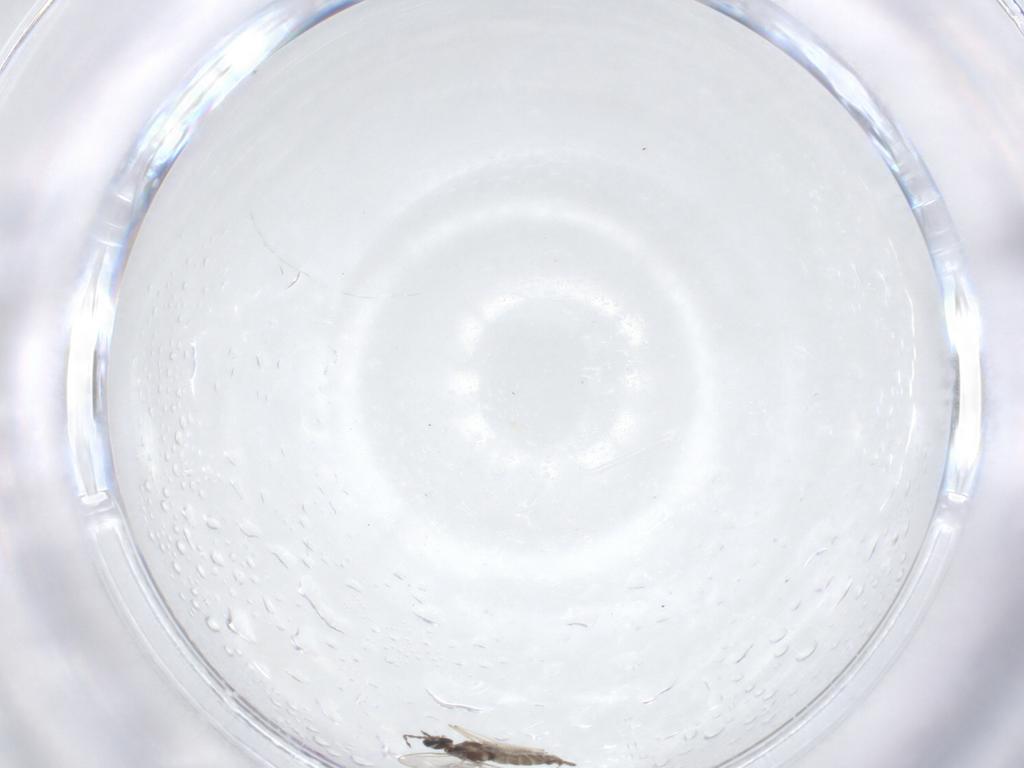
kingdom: Animalia
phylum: Arthropoda
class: Insecta
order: Diptera
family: Cecidomyiidae
